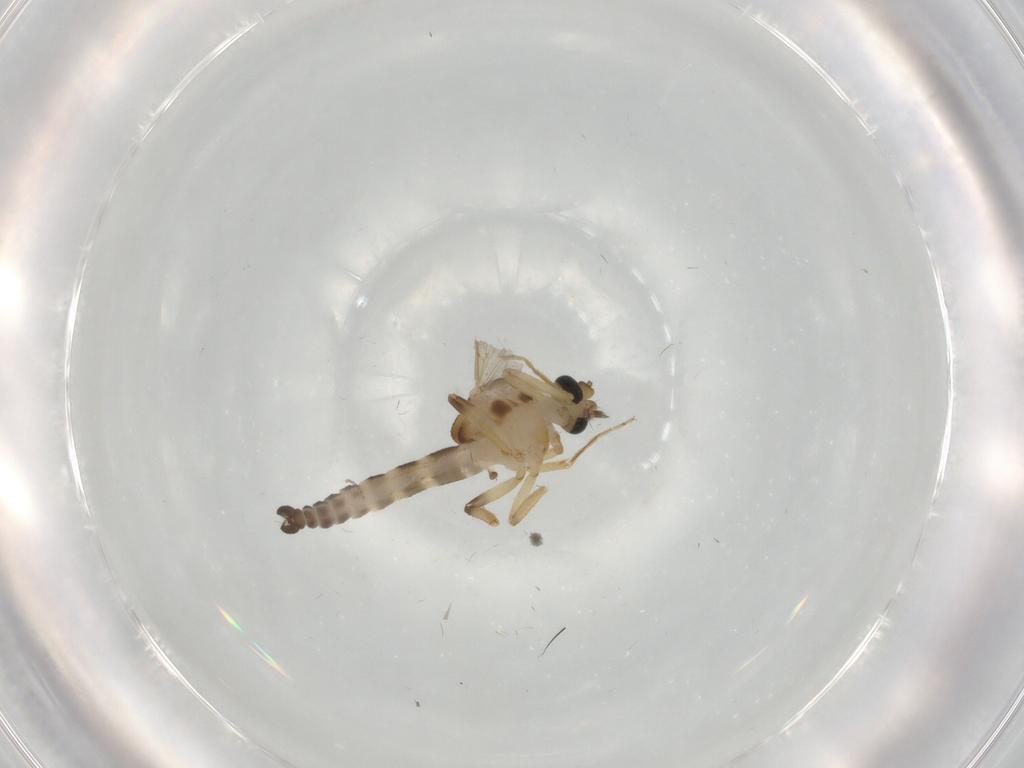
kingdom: Animalia
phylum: Arthropoda
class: Insecta
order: Diptera
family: Ceratopogonidae
